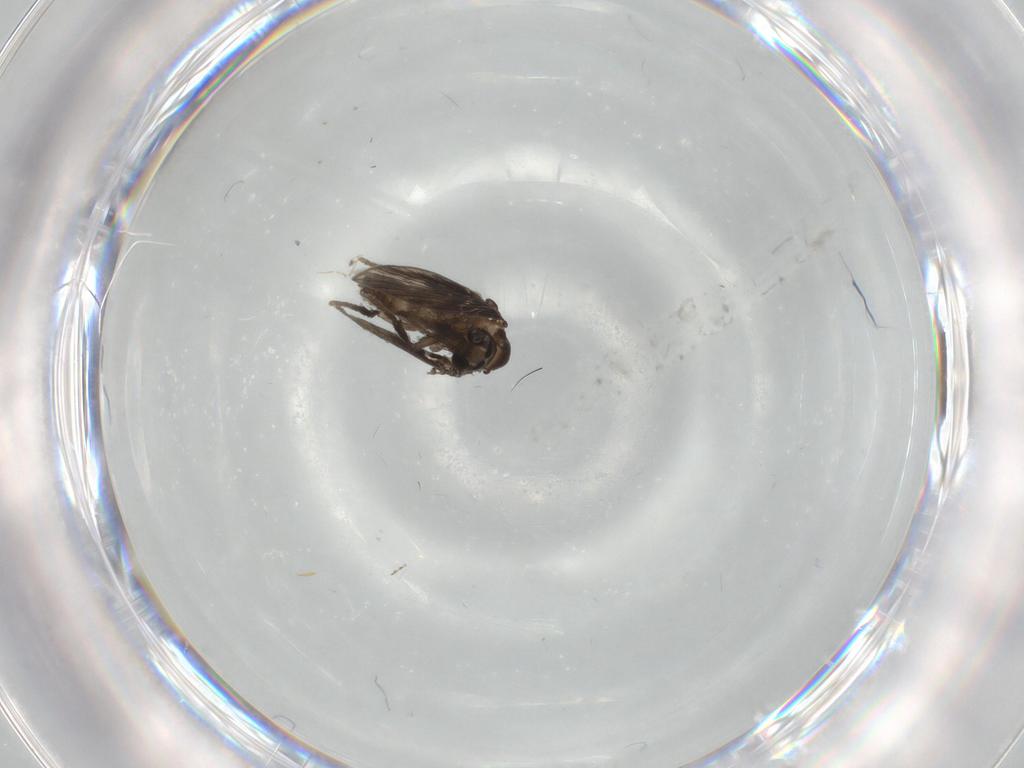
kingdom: Animalia
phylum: Arthropoda
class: Insecta
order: Diptera
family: Psychodidae
